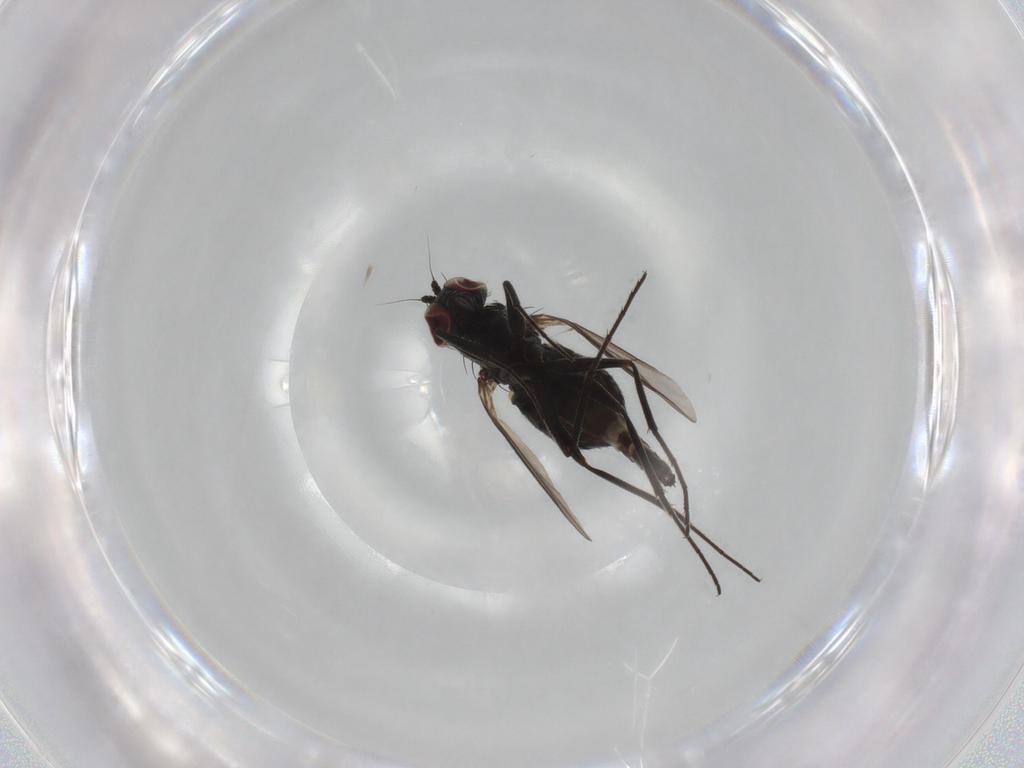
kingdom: Animalia
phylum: Arthropoda
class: Insecta
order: Diptera
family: Dolichopodidae
